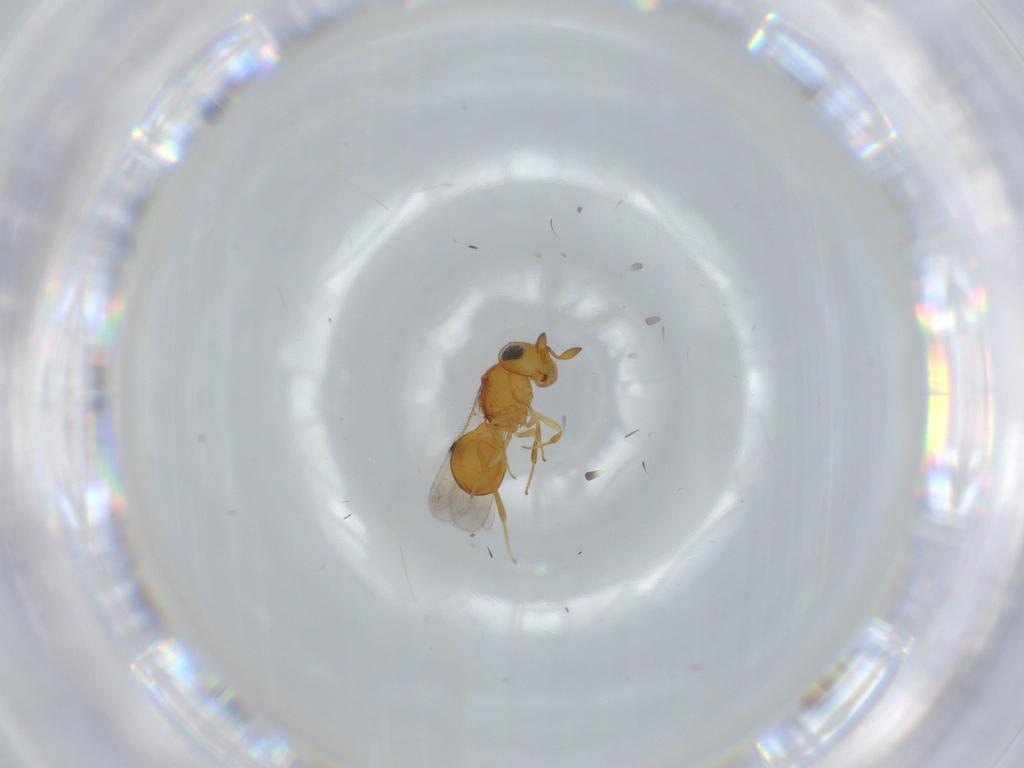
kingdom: Animalia
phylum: Arthropoda
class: Insecta
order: Hymenoptera
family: Scelionidae
